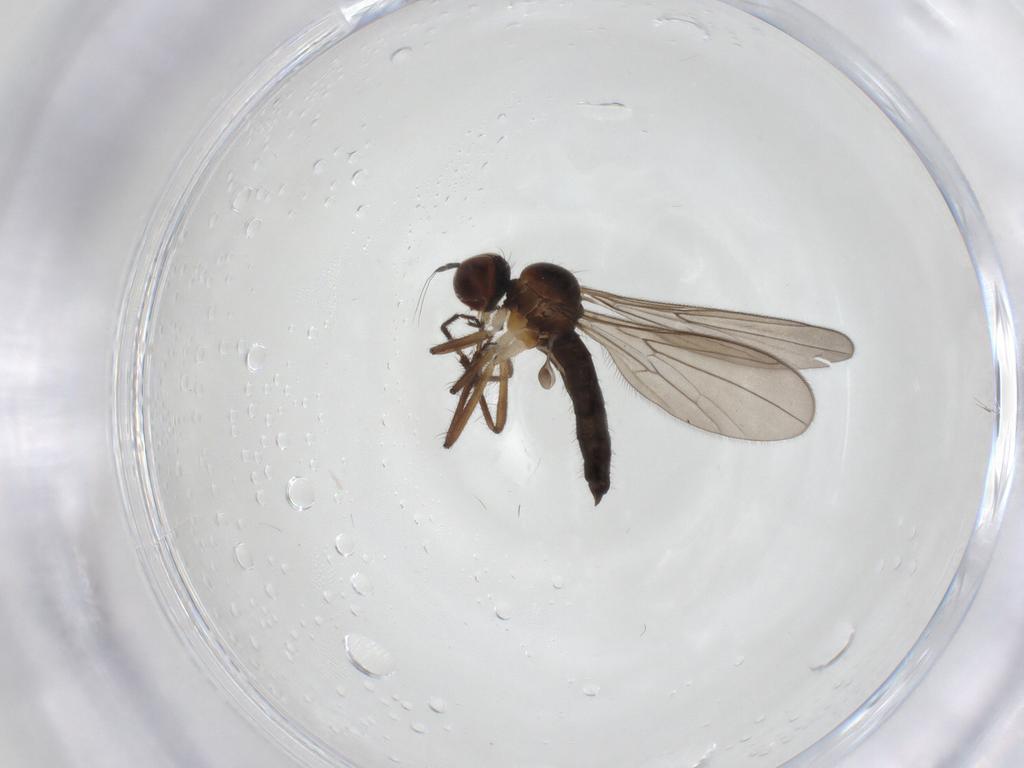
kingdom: Animalia
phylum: Arthropoda
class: Insecta
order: Diptera
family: Hybotidae
